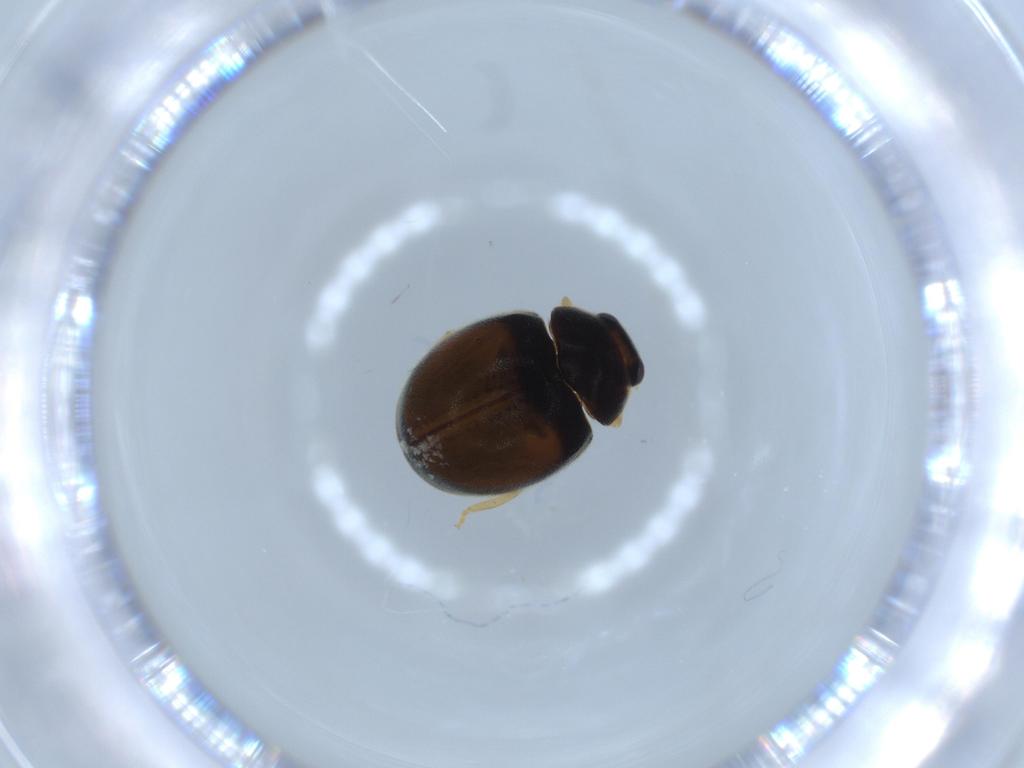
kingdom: Animalia
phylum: Arthropoda
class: Insecta
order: Coleoptera
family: Coccinellidae
